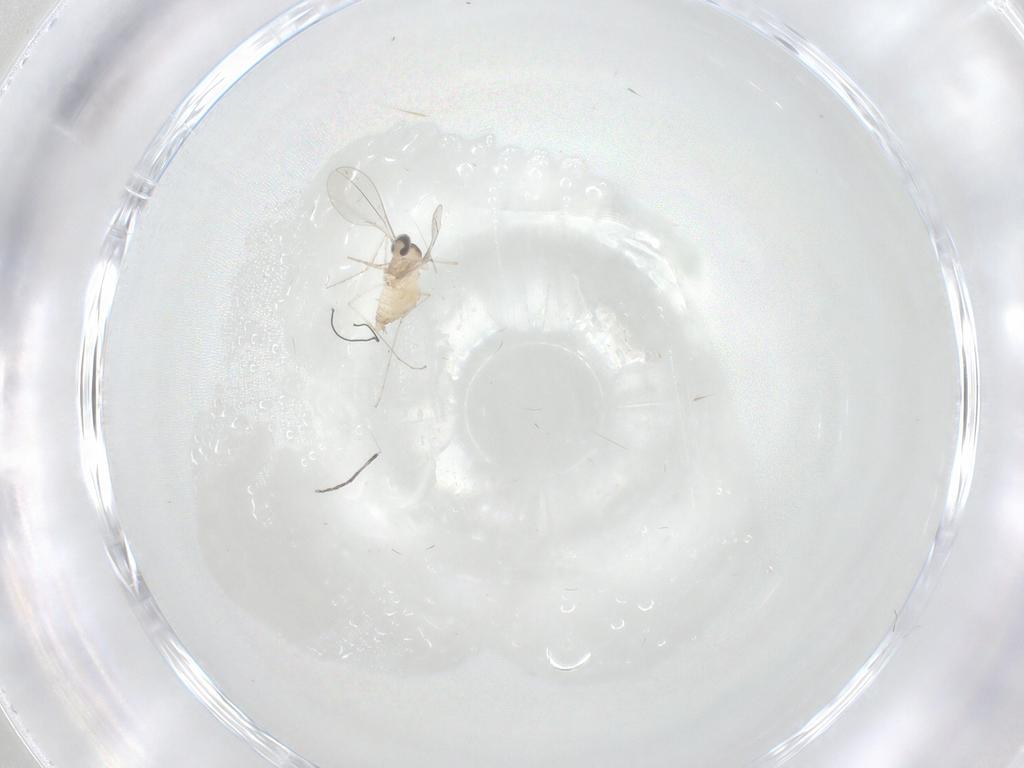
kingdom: Animalia
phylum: Arthropoda
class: Insecta
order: Diptera
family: Cecidomyiidae
